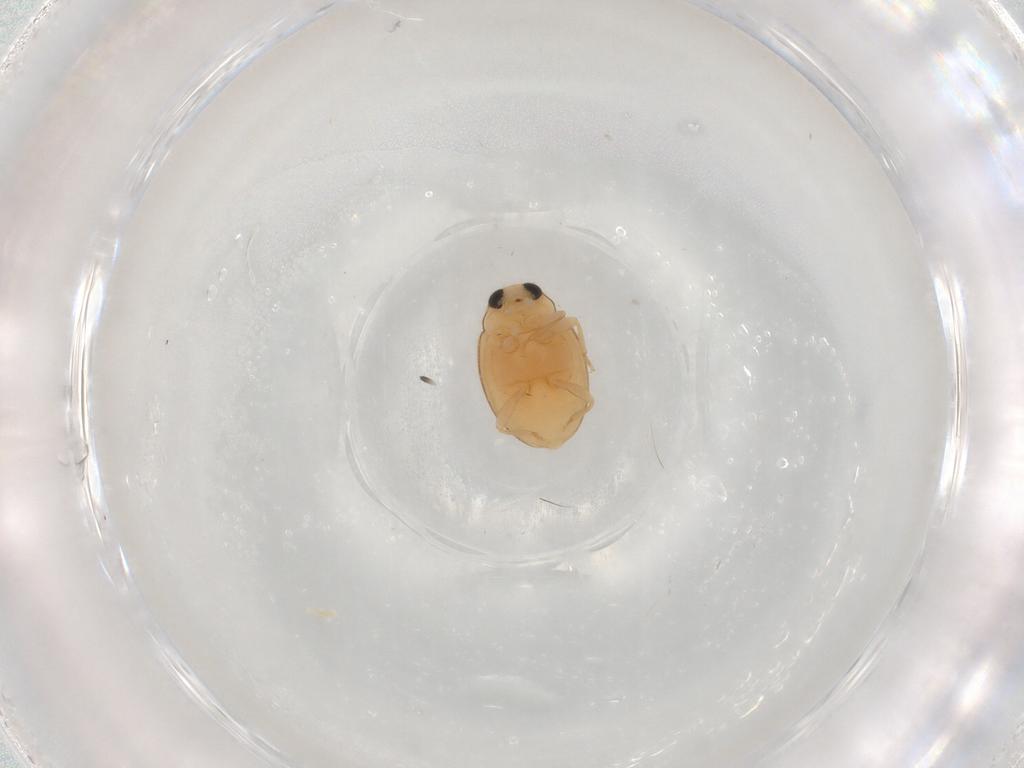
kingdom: Animalia
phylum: Arthropoda
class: Insecta
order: Coleoptera
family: Coccinellidae
